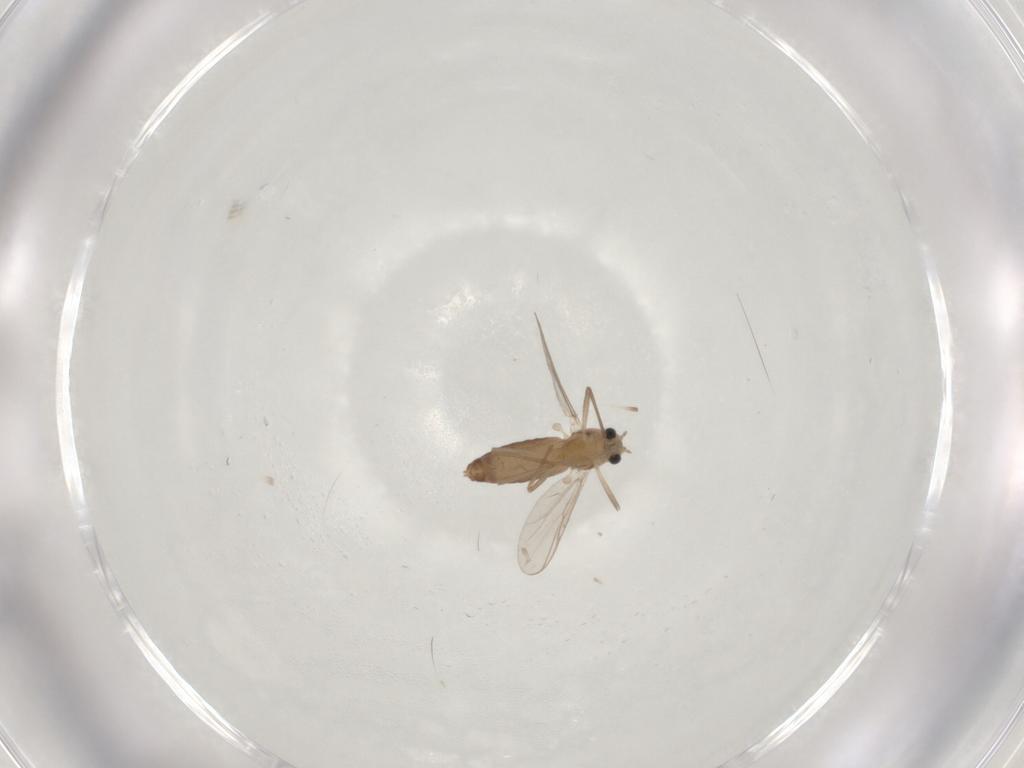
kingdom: Animalia
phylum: Arthropoda
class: Insecta
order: Diptera
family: Chironomidae
